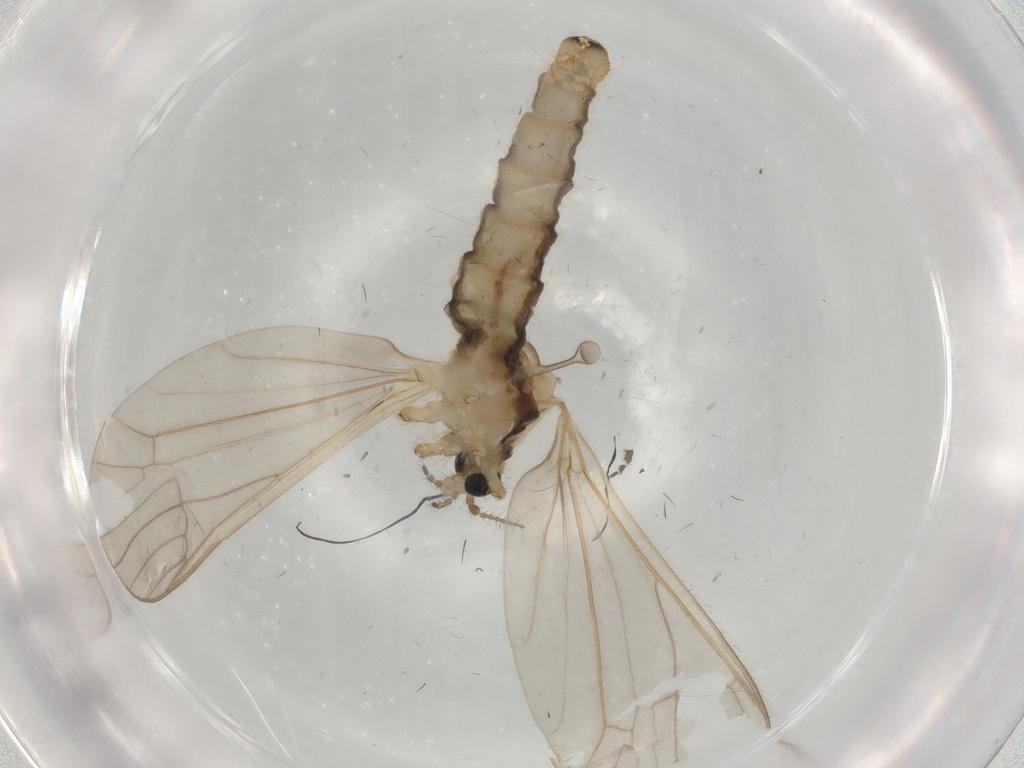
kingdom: Animalia
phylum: Arthropoda
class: Insecta
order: Diptera
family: Limoniidae
